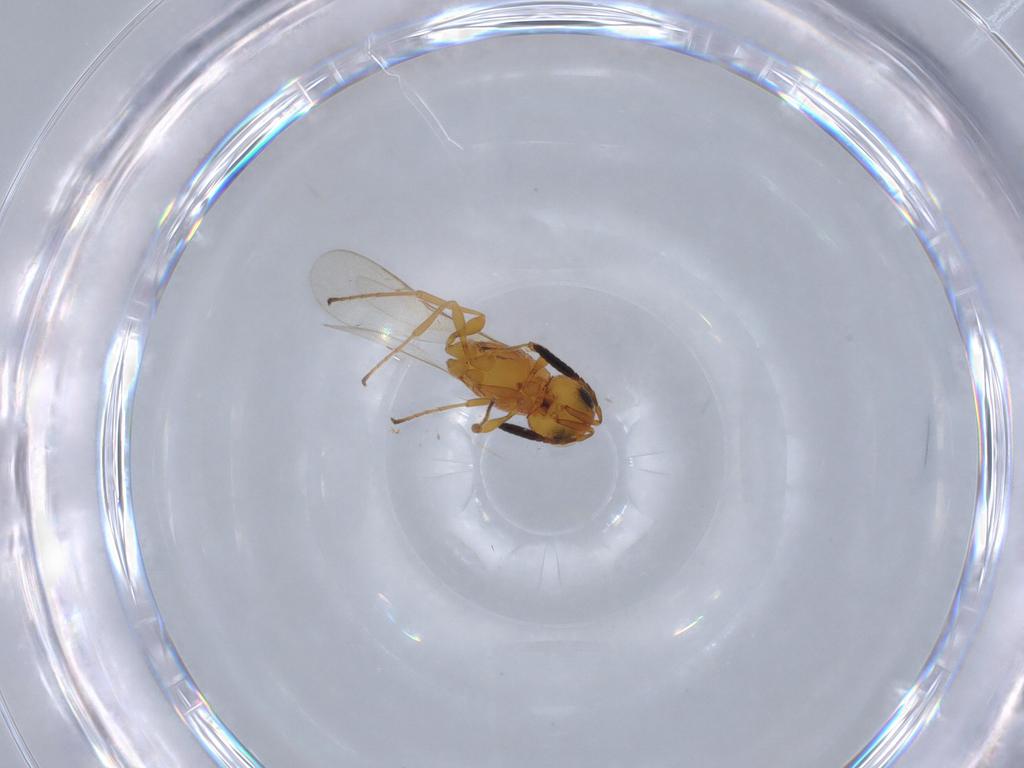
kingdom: Animalia
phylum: Arthropoda
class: Insecta
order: Hymenoptera
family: Scelionidae
